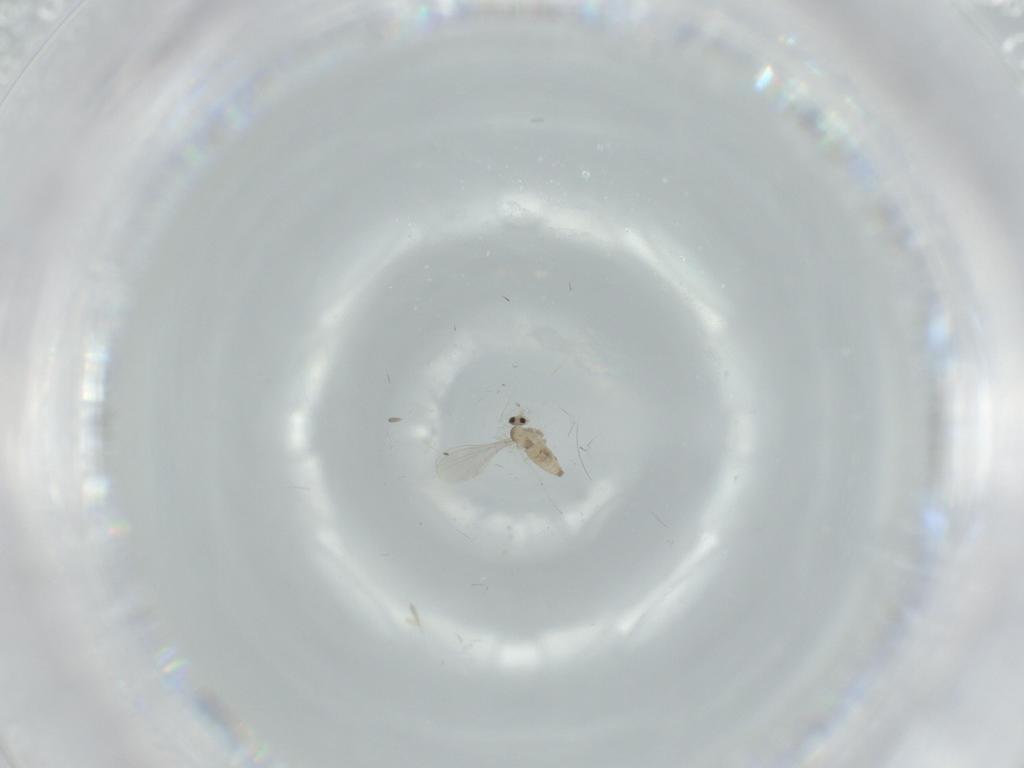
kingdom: Animalia
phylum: Arthropoda
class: Insecta
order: Diptera
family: Cecidomyiidae
